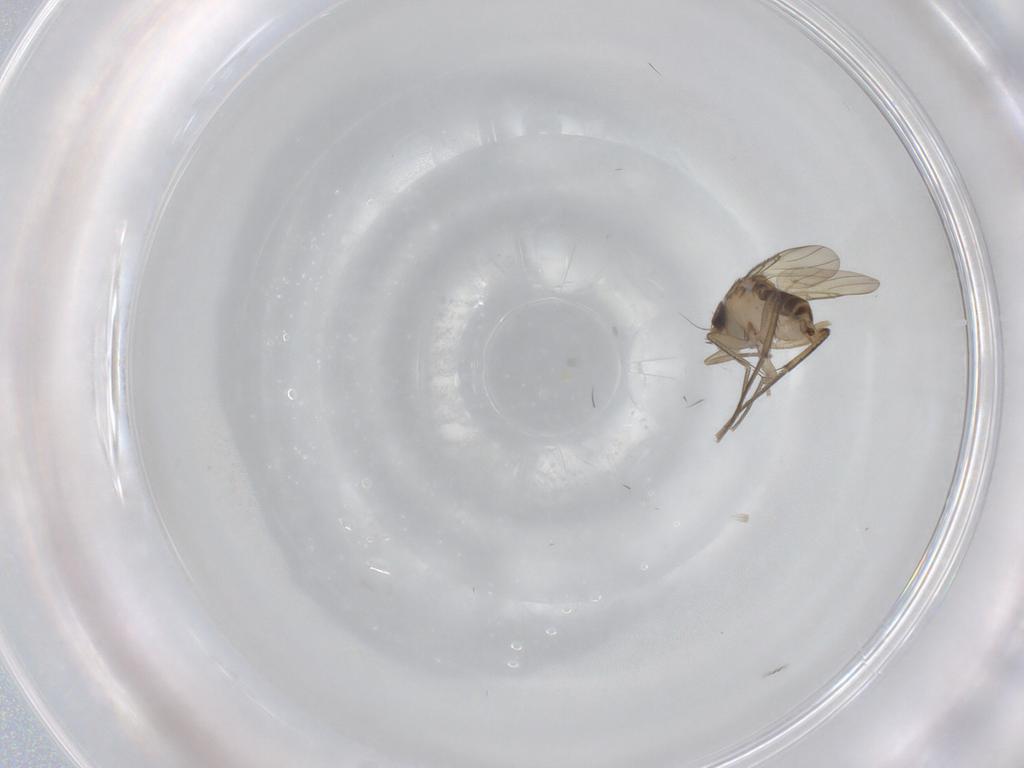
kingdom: Animalia
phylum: Arthropoda
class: Insecta
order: Diptera
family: Phoridae
